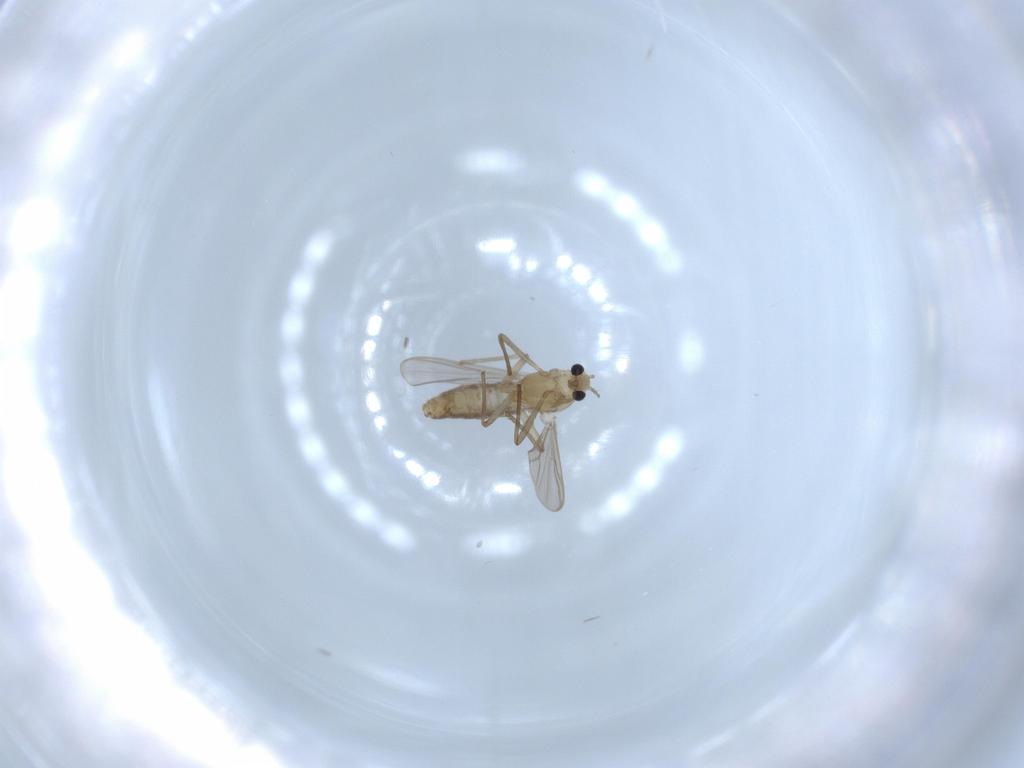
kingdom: Animalia
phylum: Arthropoda
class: Insecta
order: Diptera
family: Chironomidae
